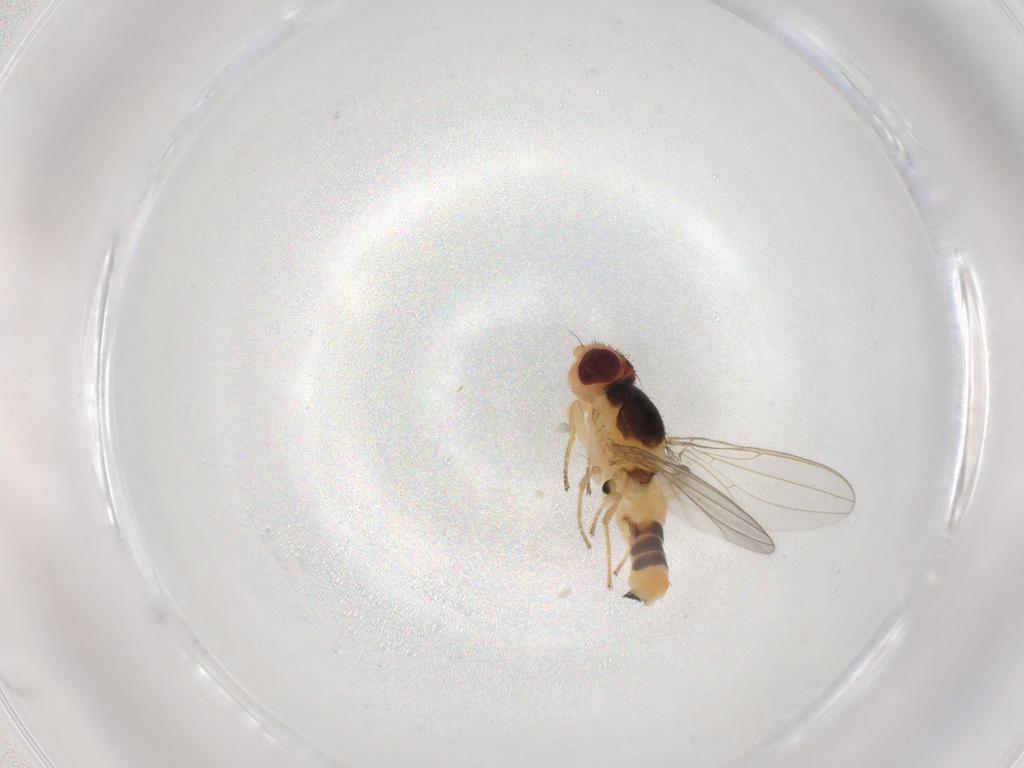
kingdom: Animalia
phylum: Arthropoda
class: Insecta
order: Diptera
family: Asteiidae
